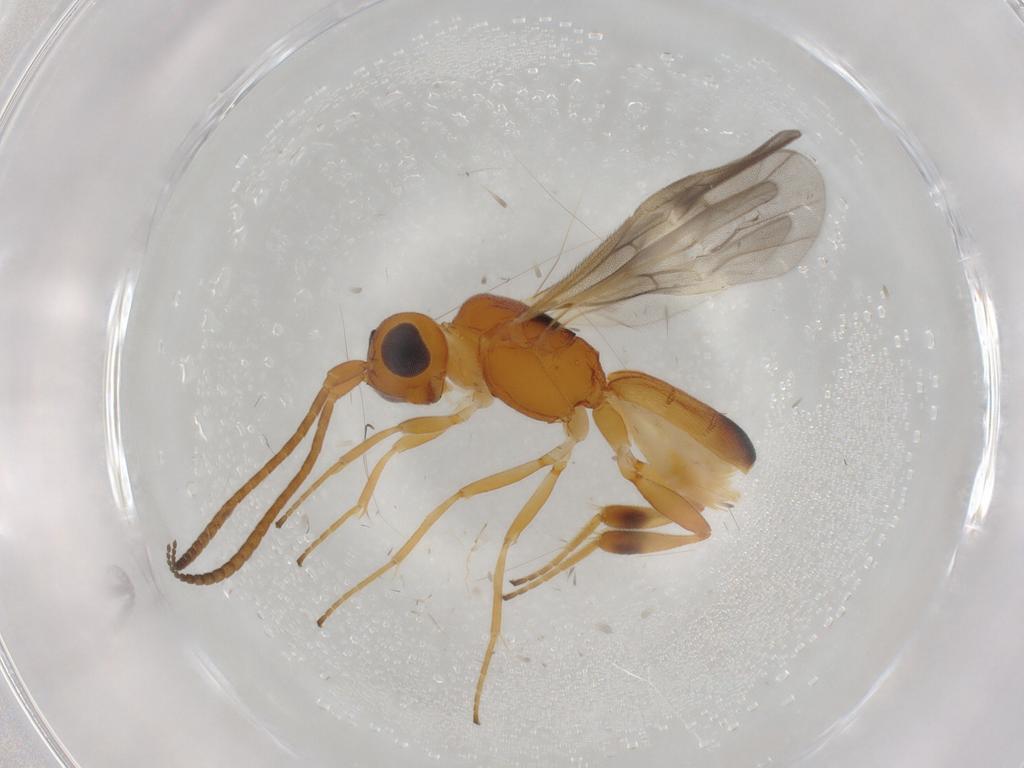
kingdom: Animalia
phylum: Arthropoda
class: Insecta
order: Hymenoptera
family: Braconidae
